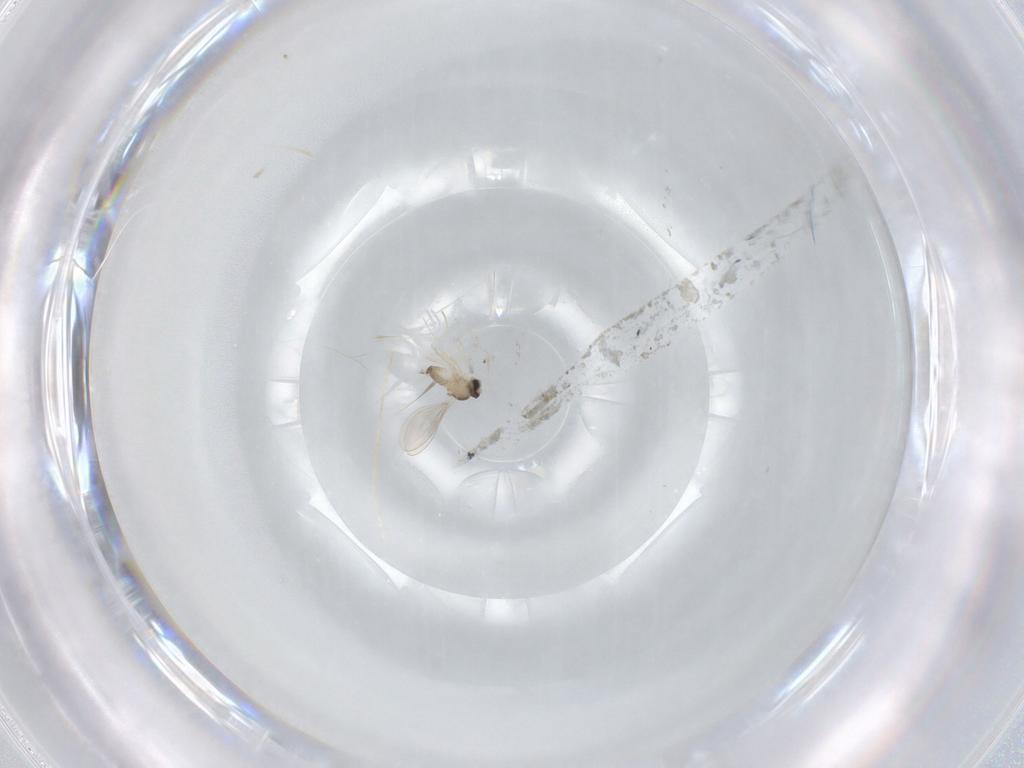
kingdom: Animalia
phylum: Arthropoda
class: Insecta
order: Diptera
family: Cecidomyiidae
